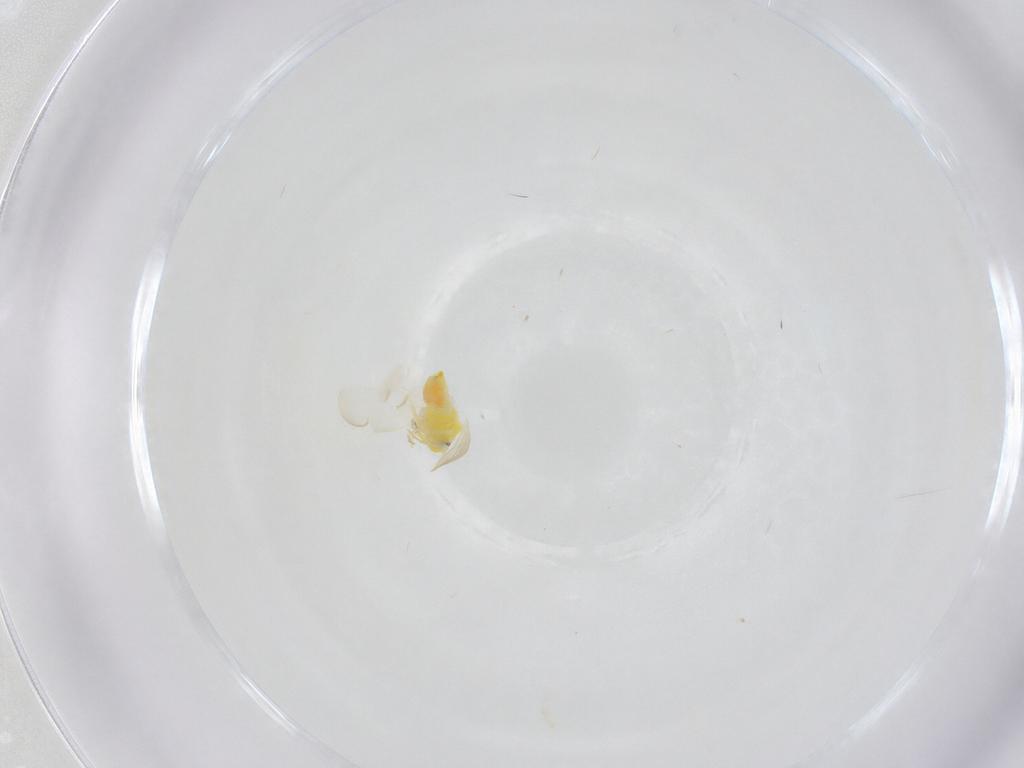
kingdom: Animalia
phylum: Arthropoda
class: Insecta
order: Hemiptera
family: Aleyrodidae
